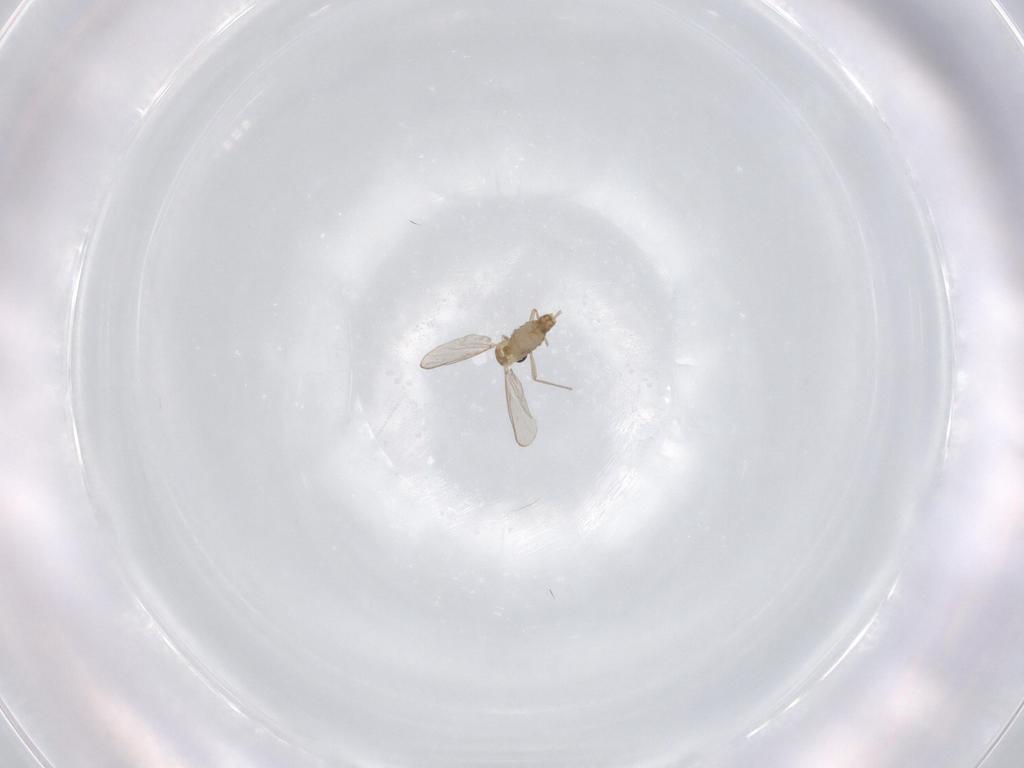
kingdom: Animalia
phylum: Arthropoda
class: Insecta
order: Diptera
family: Chironomidae
